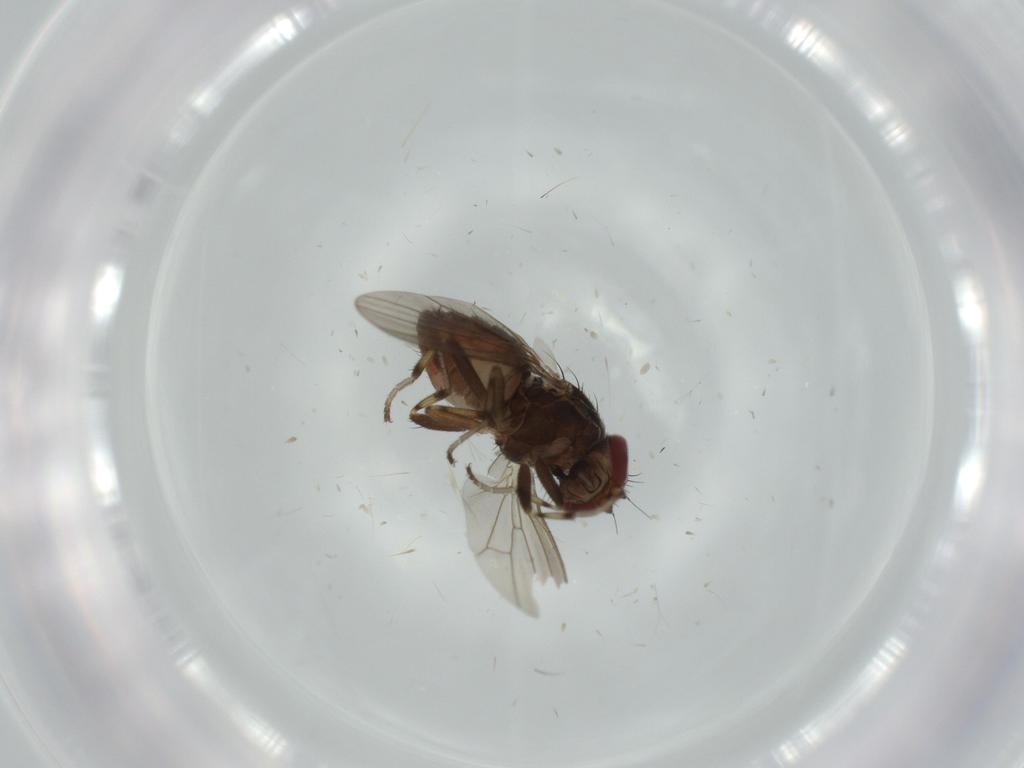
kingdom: Animalia
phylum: Arthropoda
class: Insecta
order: Diptera
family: Heleomyzidae
